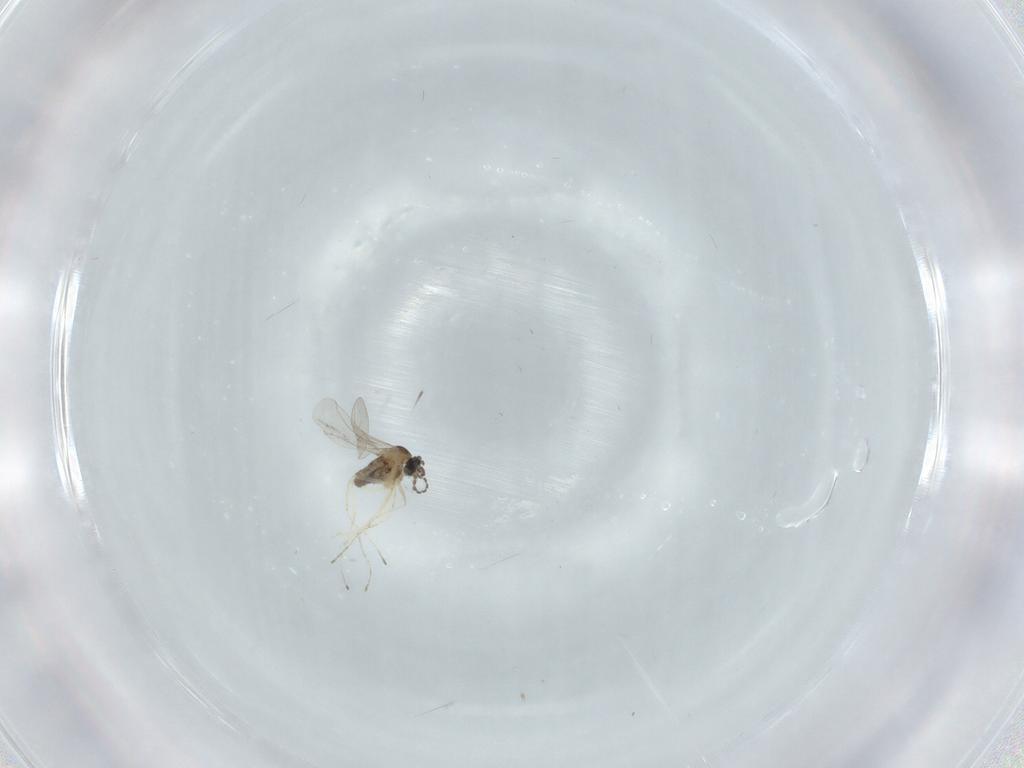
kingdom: Animalia
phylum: Arthropoda
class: Insecta
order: Diptera
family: Cecidomyiidae
